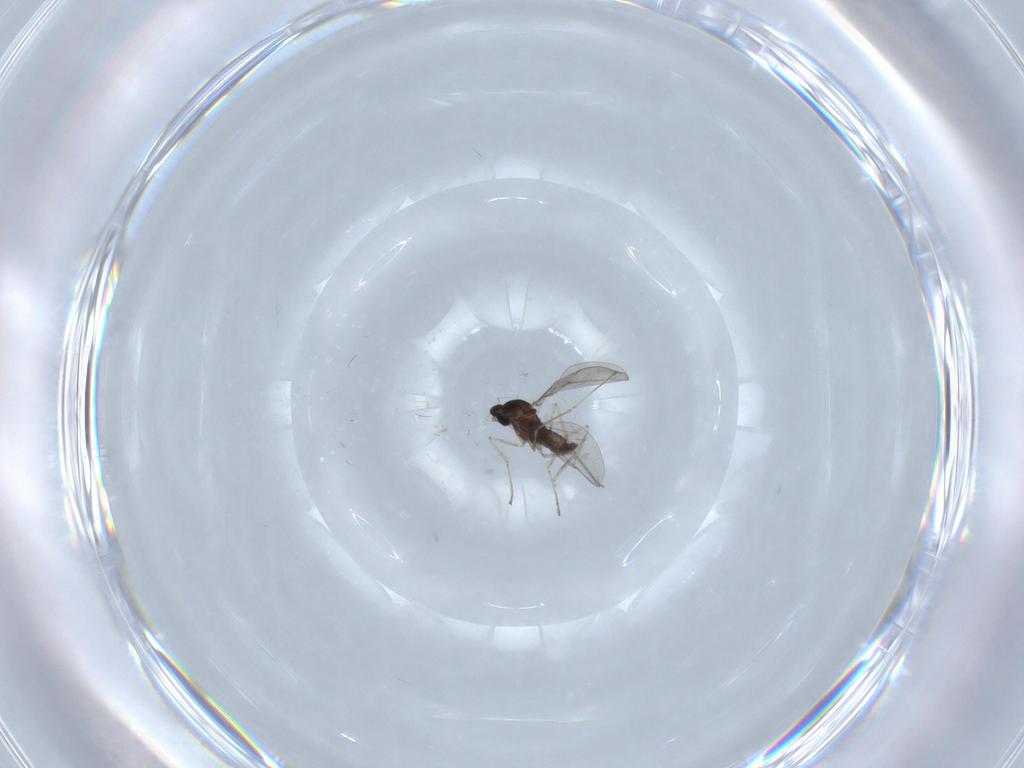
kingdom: Animalia
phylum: Arthropoda
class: Insecta
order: Diptera
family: Cecidomyiidae
